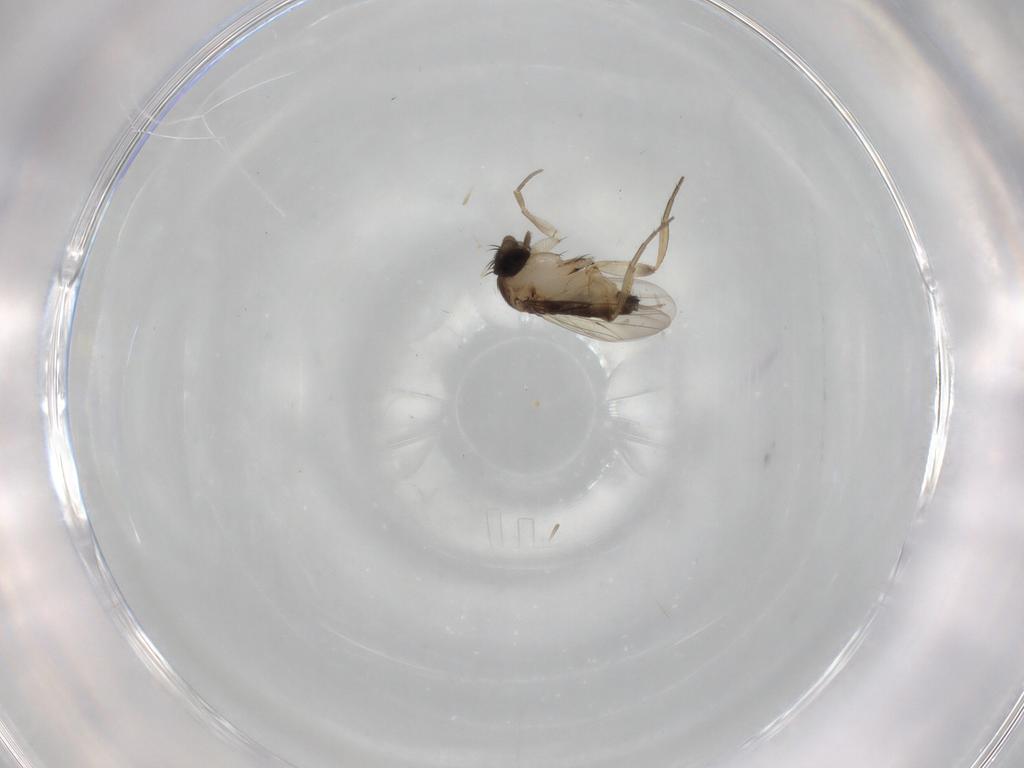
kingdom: Animalia
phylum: Arthropoda
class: Insecta
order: Diptera
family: Phoridae
